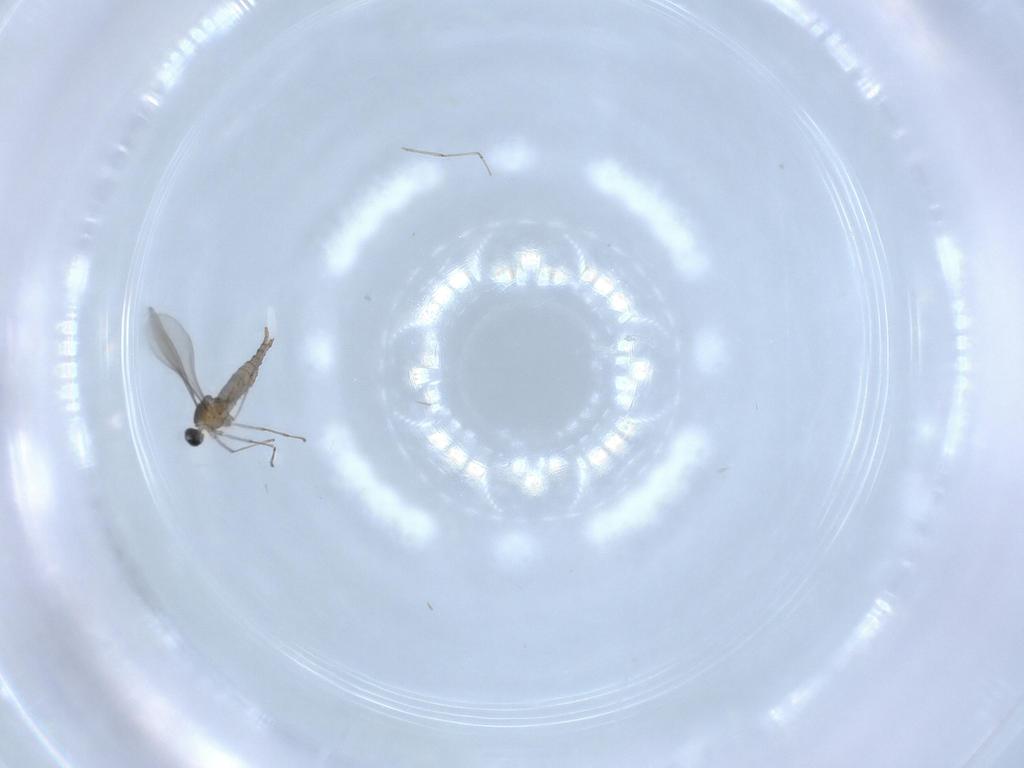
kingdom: Animalia
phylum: Arthropoda
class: Insecta
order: Diptera
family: Cecidomyiidae
